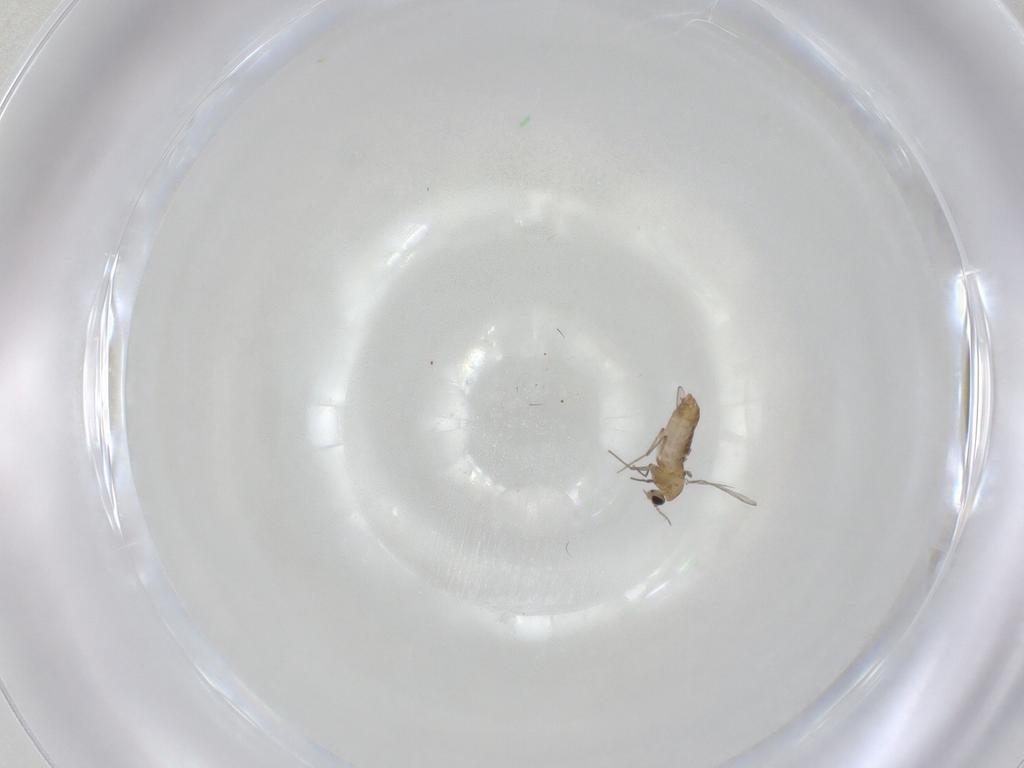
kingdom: Animalia
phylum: Arthropoda
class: Insecta
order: Diptera
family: Chironomidae
